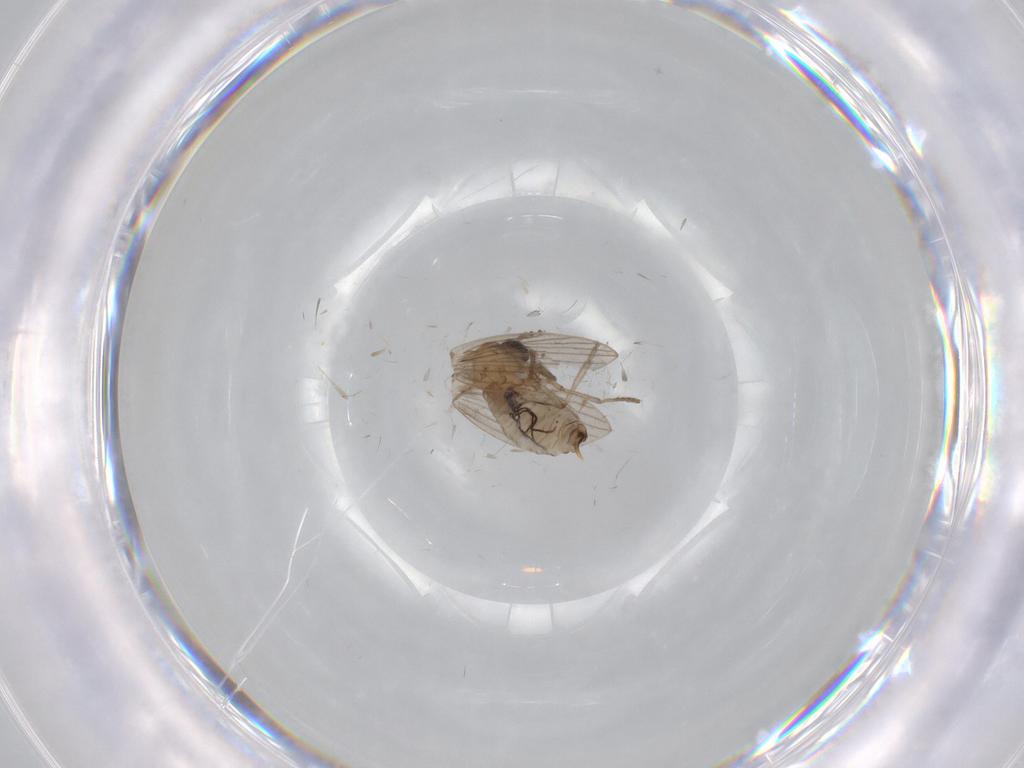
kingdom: Animalia
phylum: Arthropoda
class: Insecta
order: Diptera
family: Psychodidae
